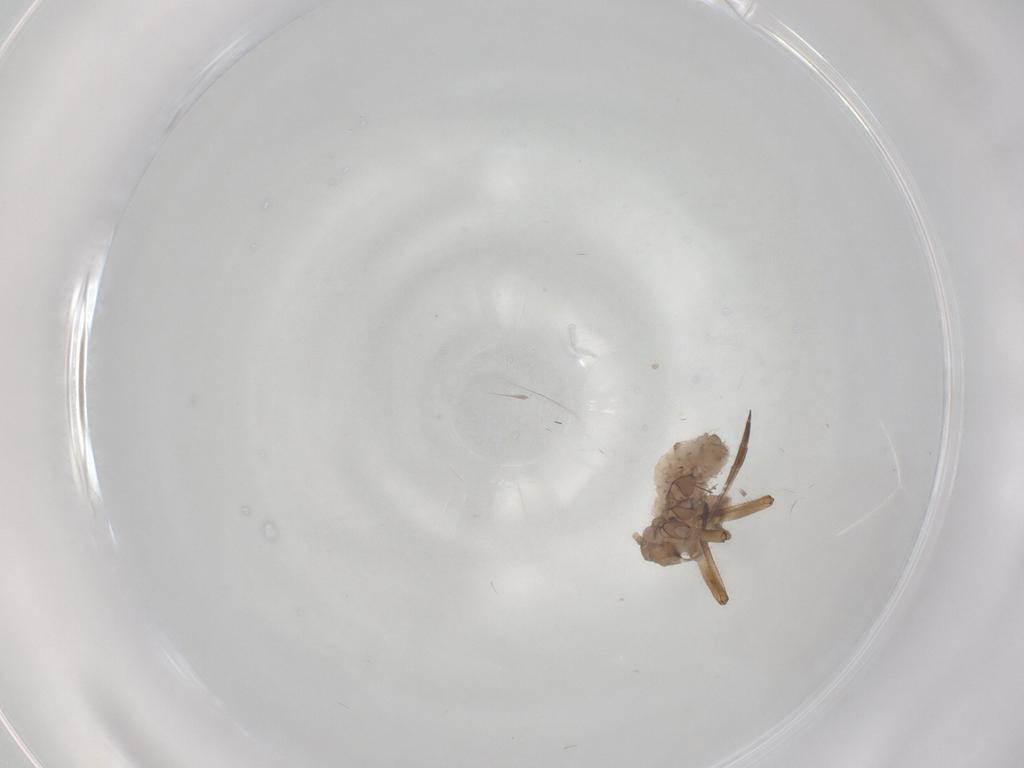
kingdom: Animalia
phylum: Arthropoda
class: Insecta
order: Hemiptera
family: Aphididae
